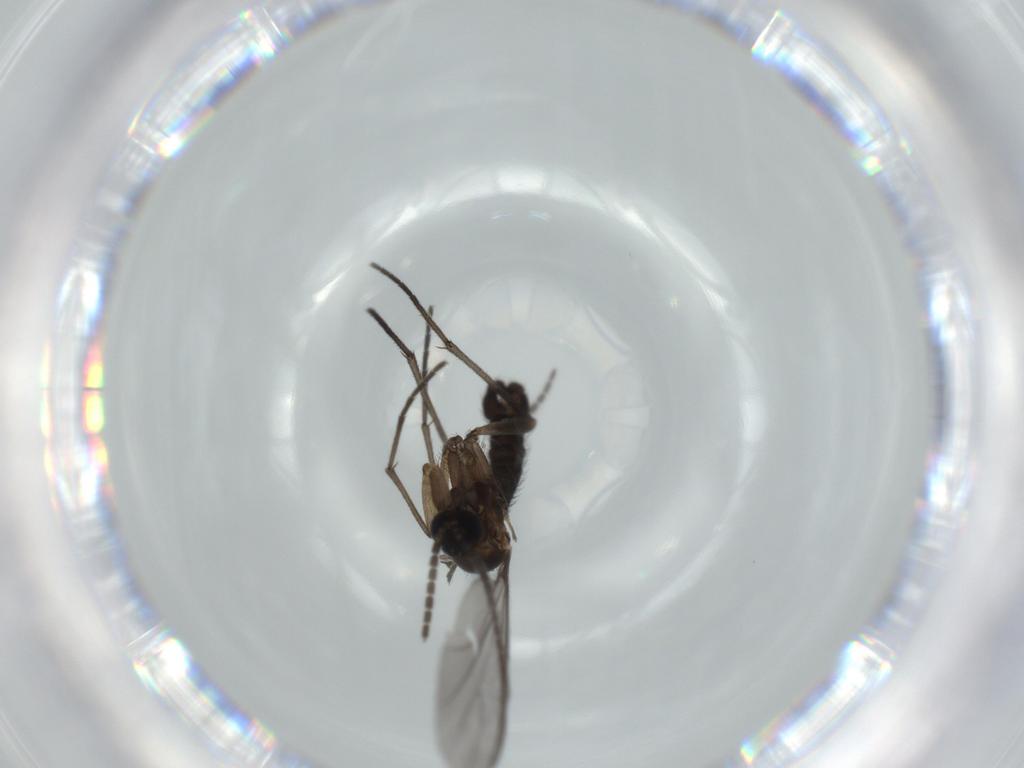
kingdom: Animalia
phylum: Arthropoda
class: Insecta
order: Diptera
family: Sciaridae
